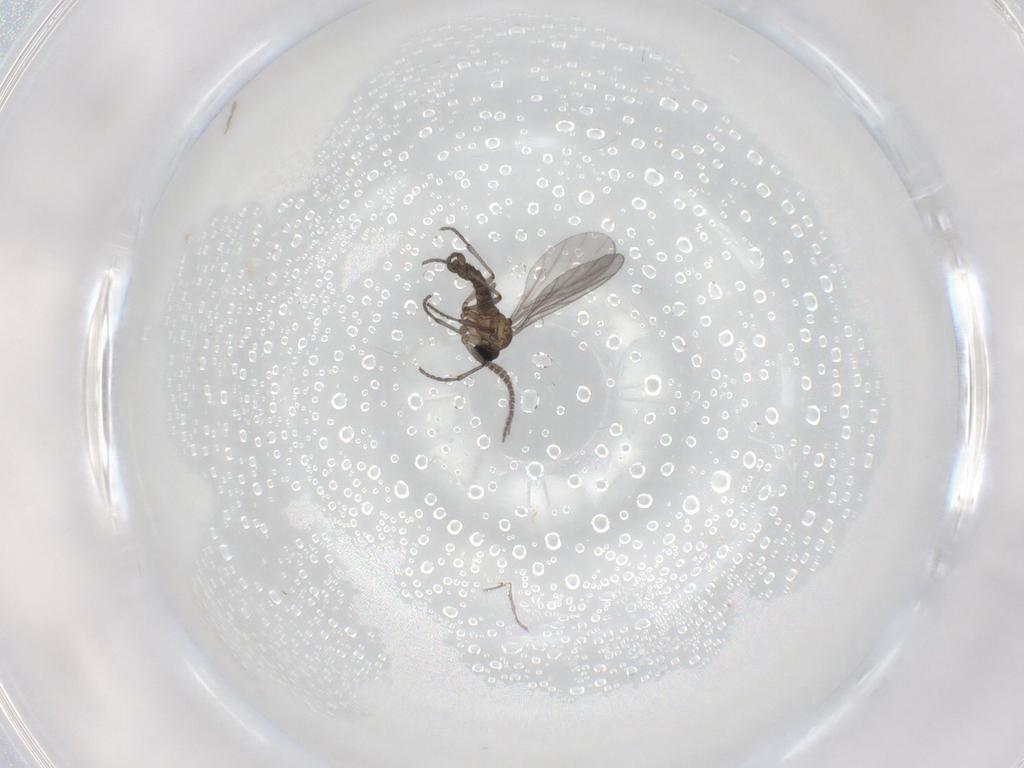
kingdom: Animalia
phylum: Arthropoda
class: Insecta
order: Diptera
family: Sciaridae
